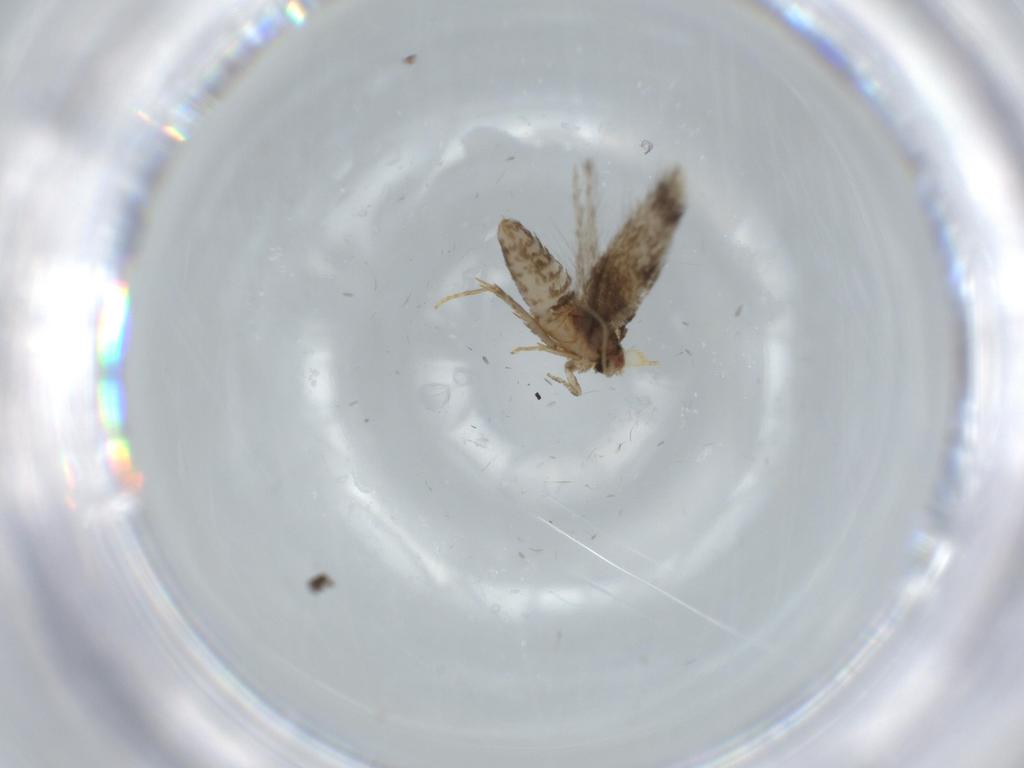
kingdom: Animalia
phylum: Arthropoda
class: Insecta
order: Lepidoptera
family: Nepticulidae
